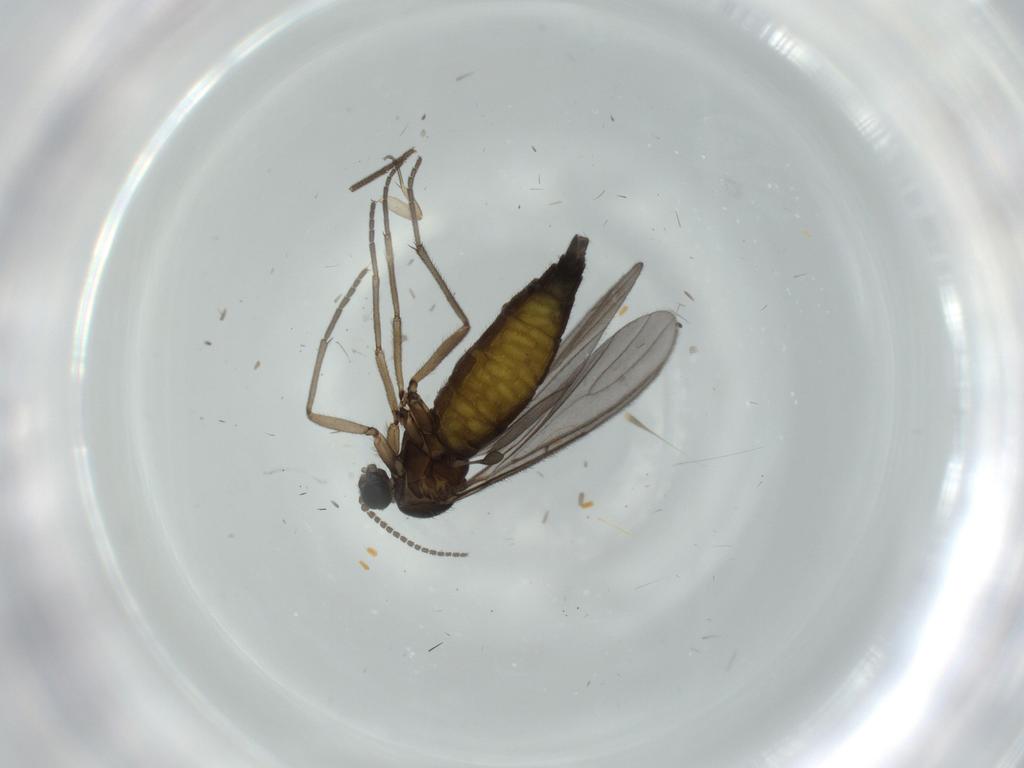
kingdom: Animalia
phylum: Arthropoda
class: Insecta
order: Diptera
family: Sciaridae
